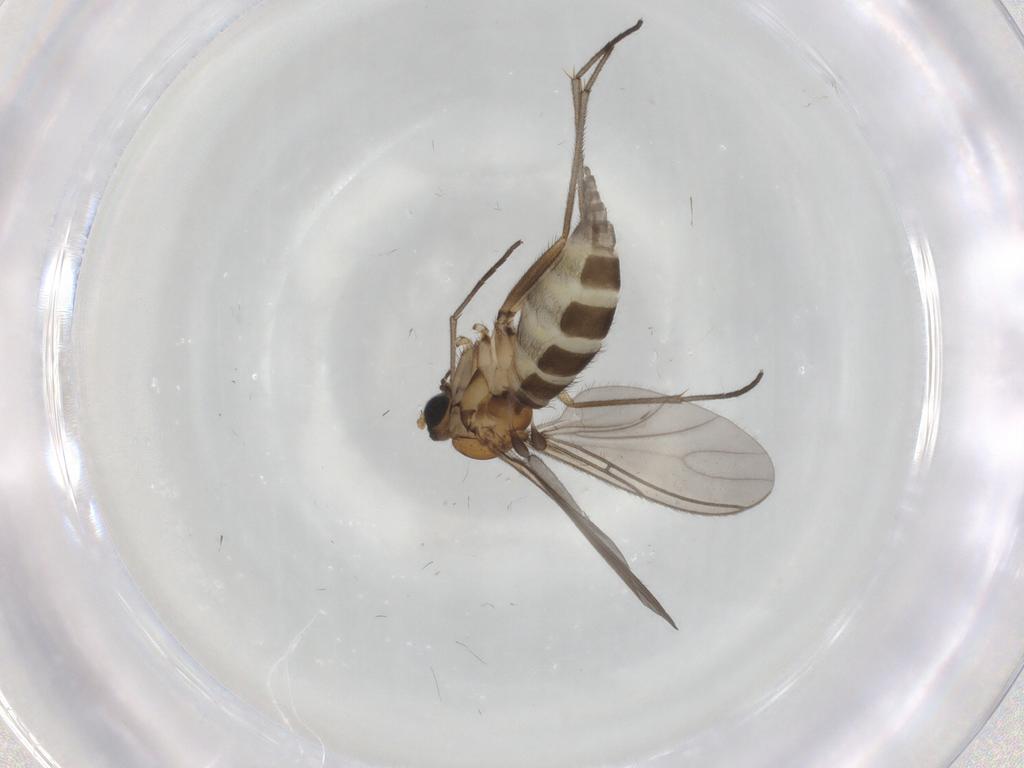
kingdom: Animalia
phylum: Arthropoda
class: Insecta
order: Diptera
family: Sciaridae
